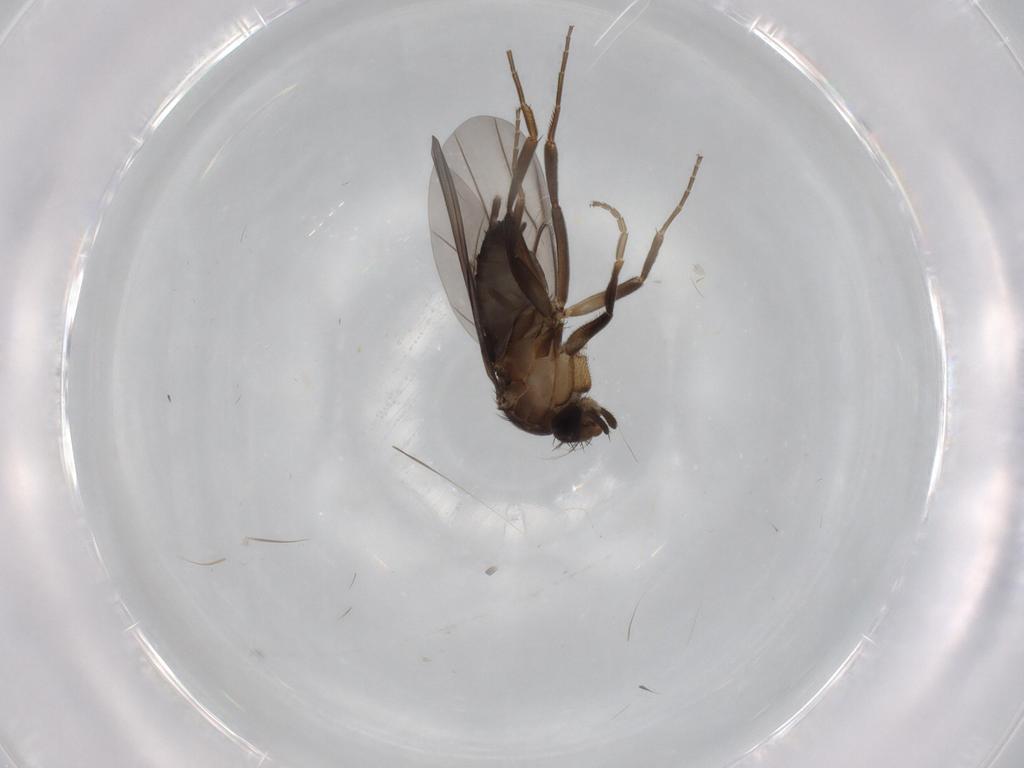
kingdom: Animalia
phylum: Arthropoda
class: Insecta
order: Diptera
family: Phoridae
